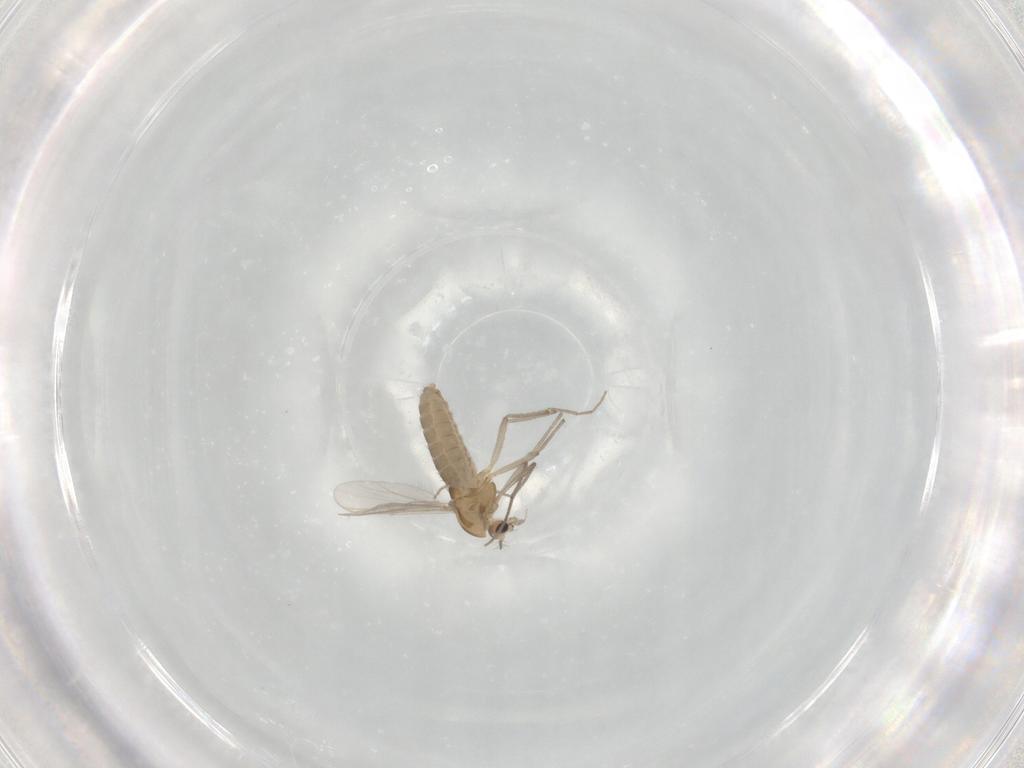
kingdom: Animalia
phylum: Arthropoda
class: Insecta
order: Diptera
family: Chironomidae
